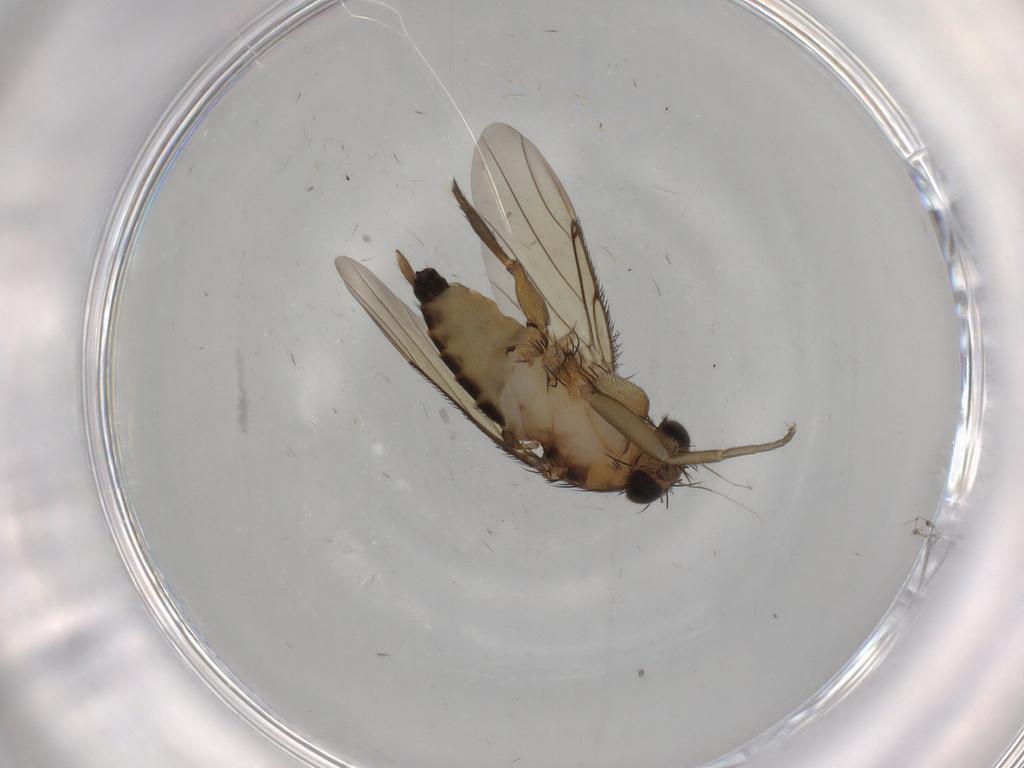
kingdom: Animalia
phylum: Arthropoda
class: Insecta
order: Diptera
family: Phoridae
